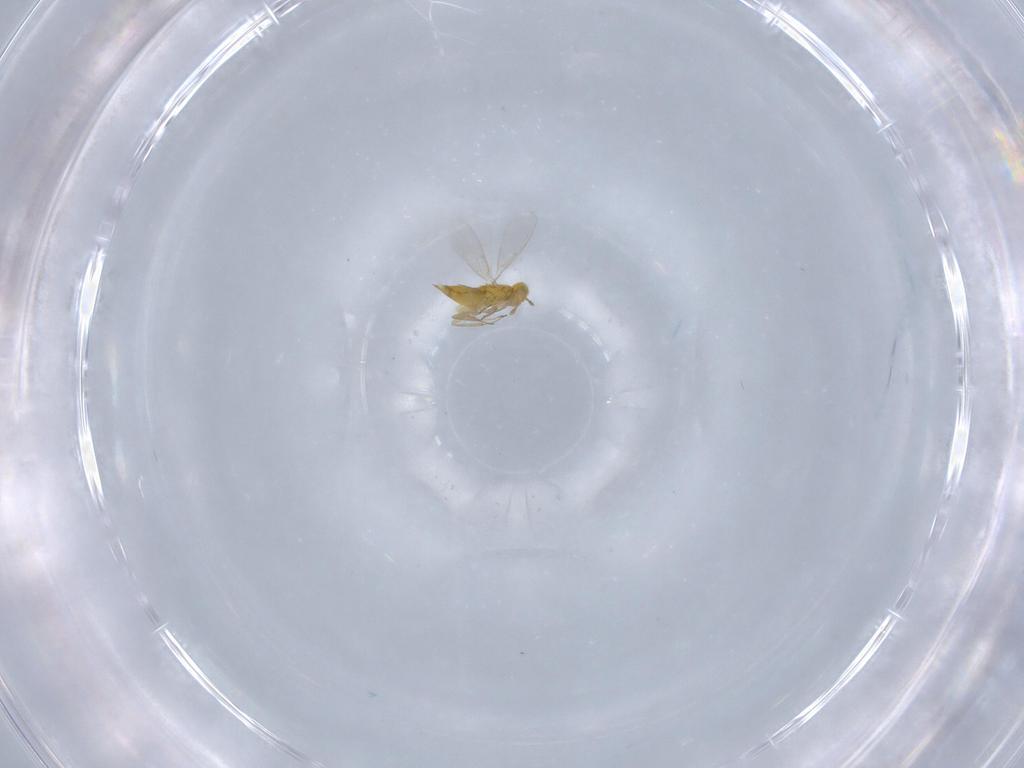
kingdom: Animalia
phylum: Arthropoda
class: Insecta
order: Hymenoptera
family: Aphelinidae
